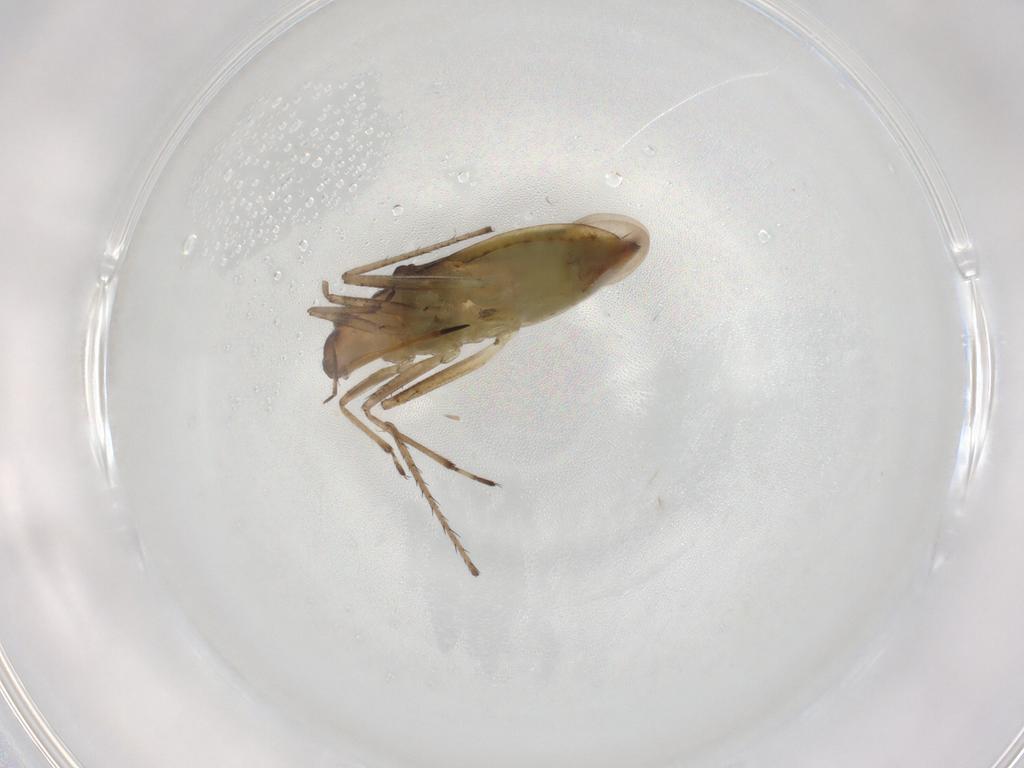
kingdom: Animalia
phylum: Arthropoda
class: Insecta
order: Hemiptera
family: Mesoveliidae
